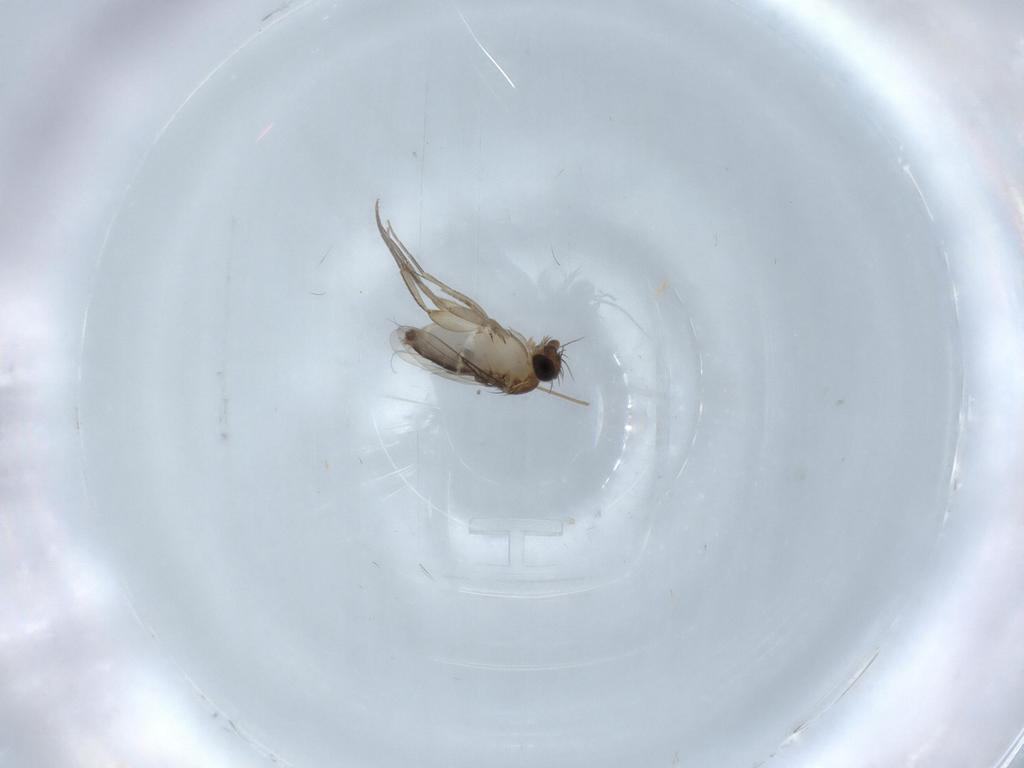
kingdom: Animalia
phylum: Arthropoda
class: Insecta
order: Diptera
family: Phoridae
